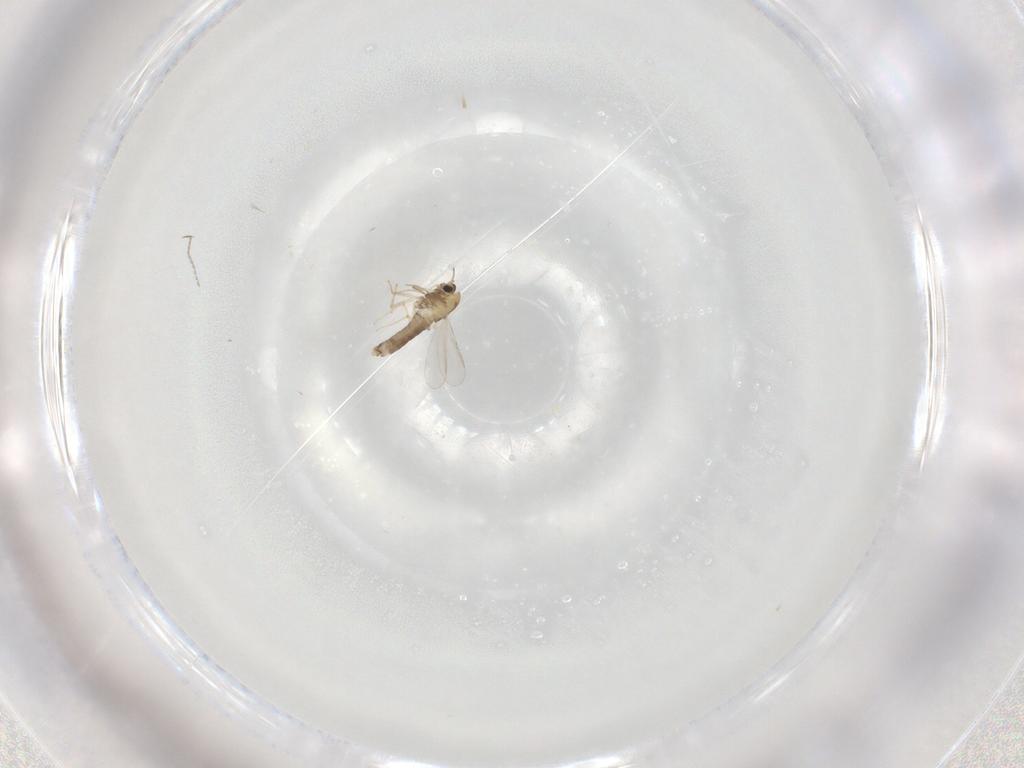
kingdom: Animalia
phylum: Arthropoda
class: Insecta
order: Diptera
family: Chironomidae
